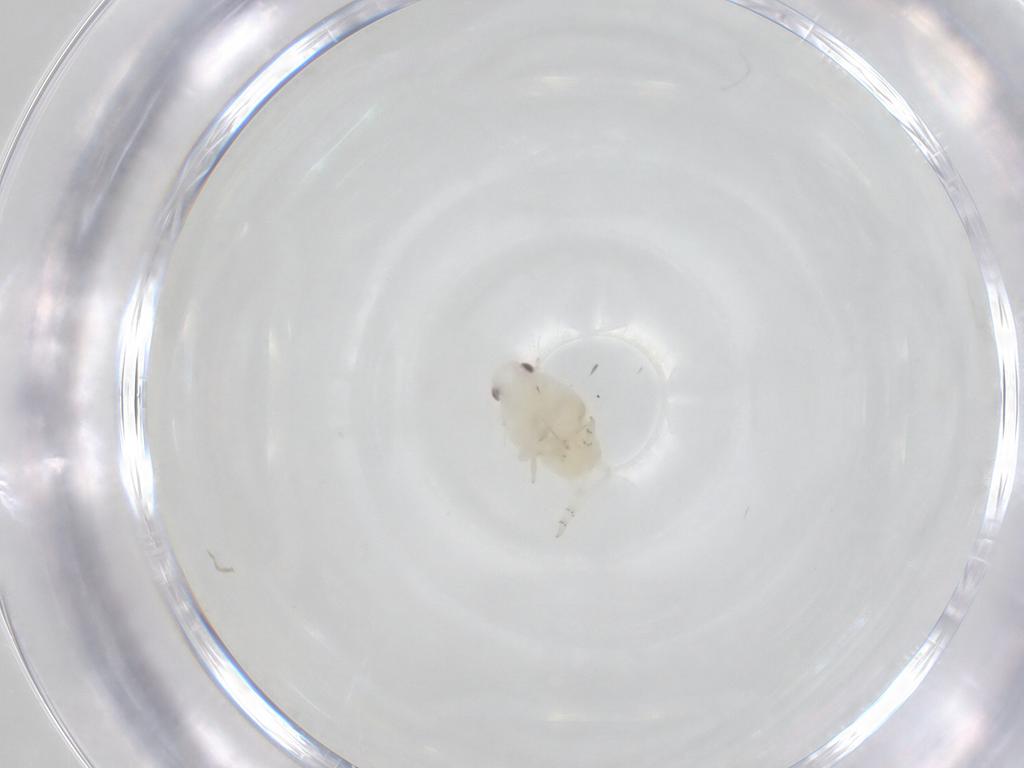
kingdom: Animalia
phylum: Arthropoda
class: Insecta
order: Hemiptera
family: Flatidae
